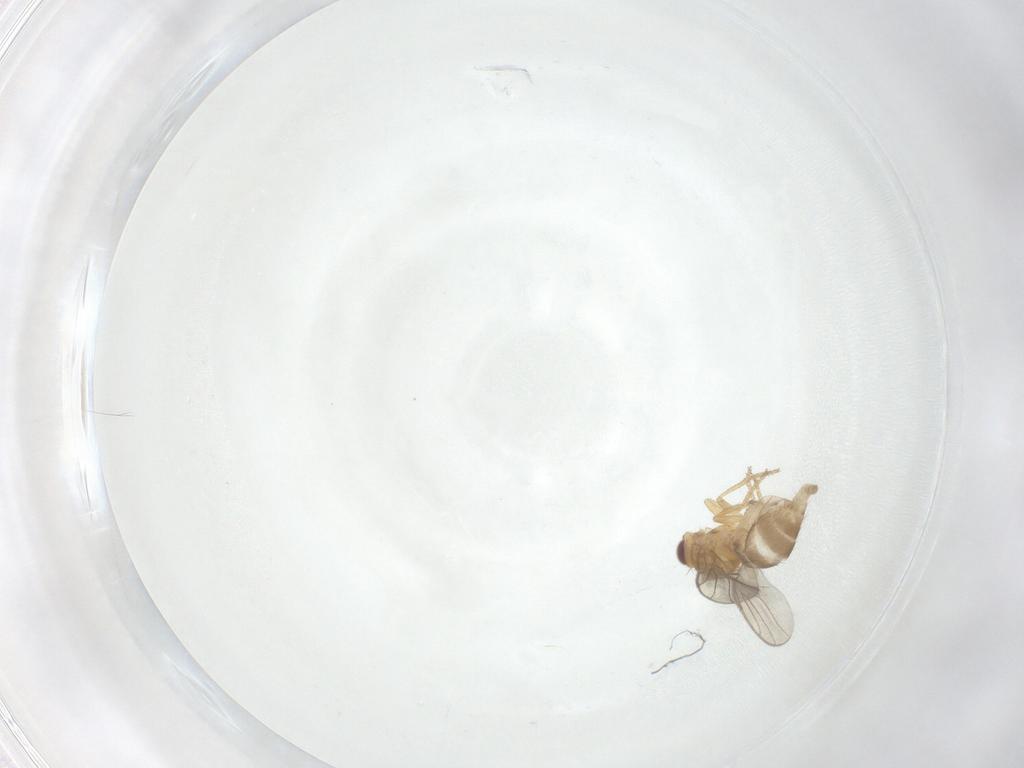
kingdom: Animalia
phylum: Arthropoda
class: Insecta
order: Diptera
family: Chloropidae
